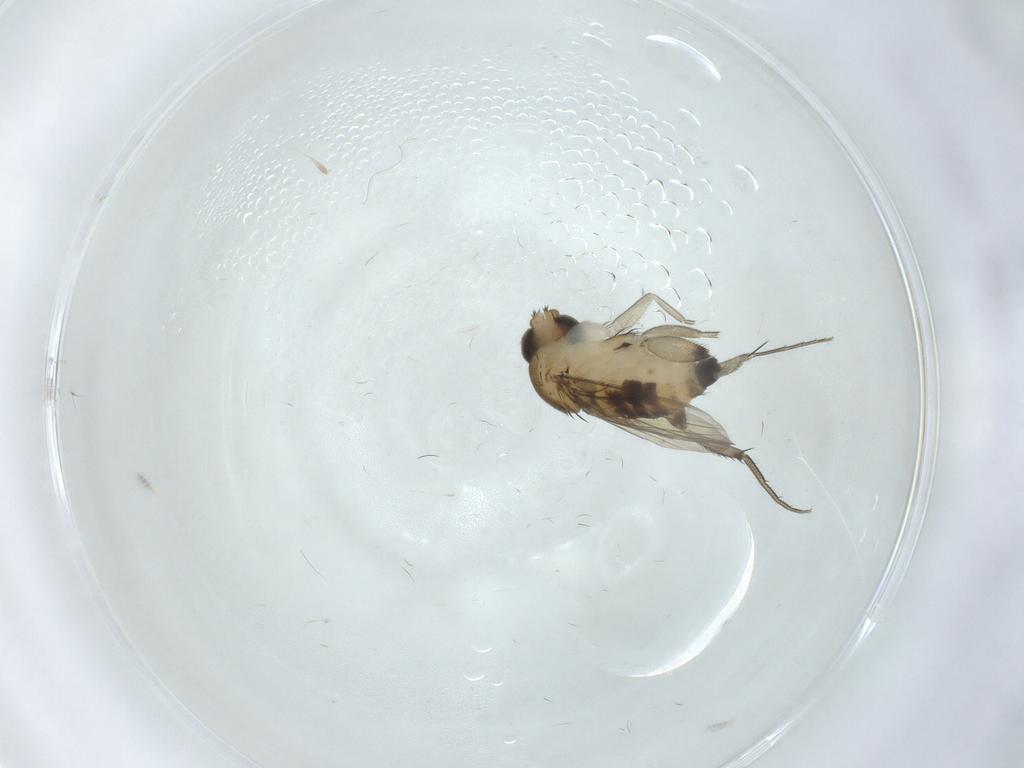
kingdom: Animalia
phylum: Arthropoda
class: Insecta
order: Diptera
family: Phoridae
